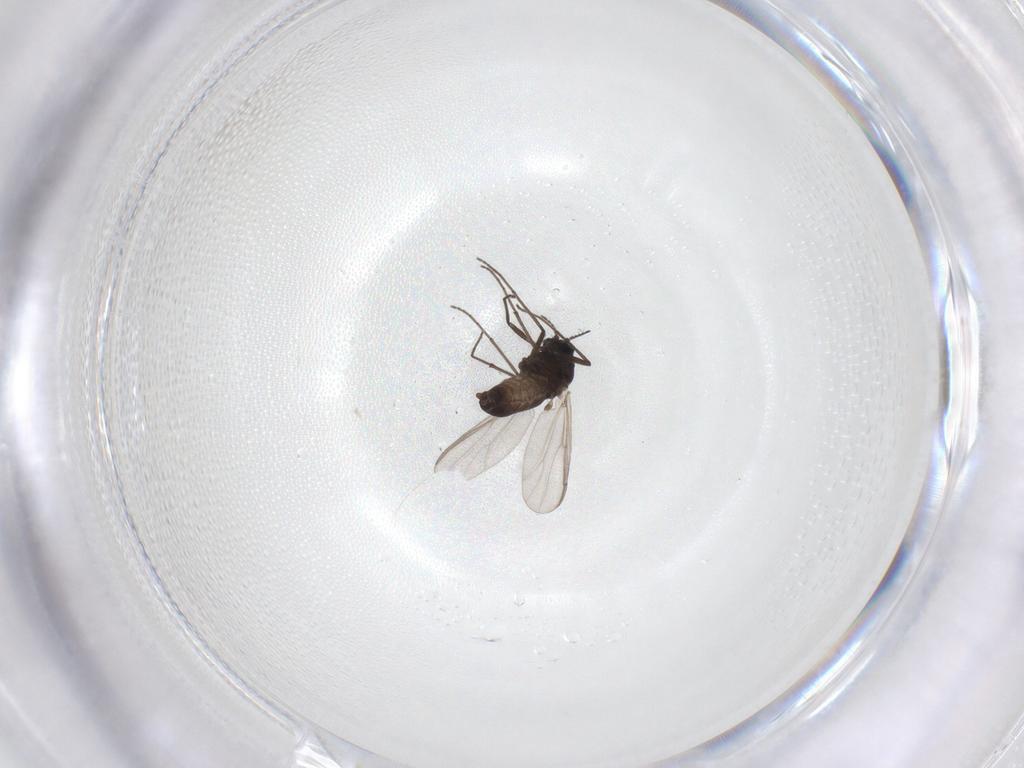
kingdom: Animalia
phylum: Arthropoda
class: Insecta
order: Diptera
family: Chironomidae
